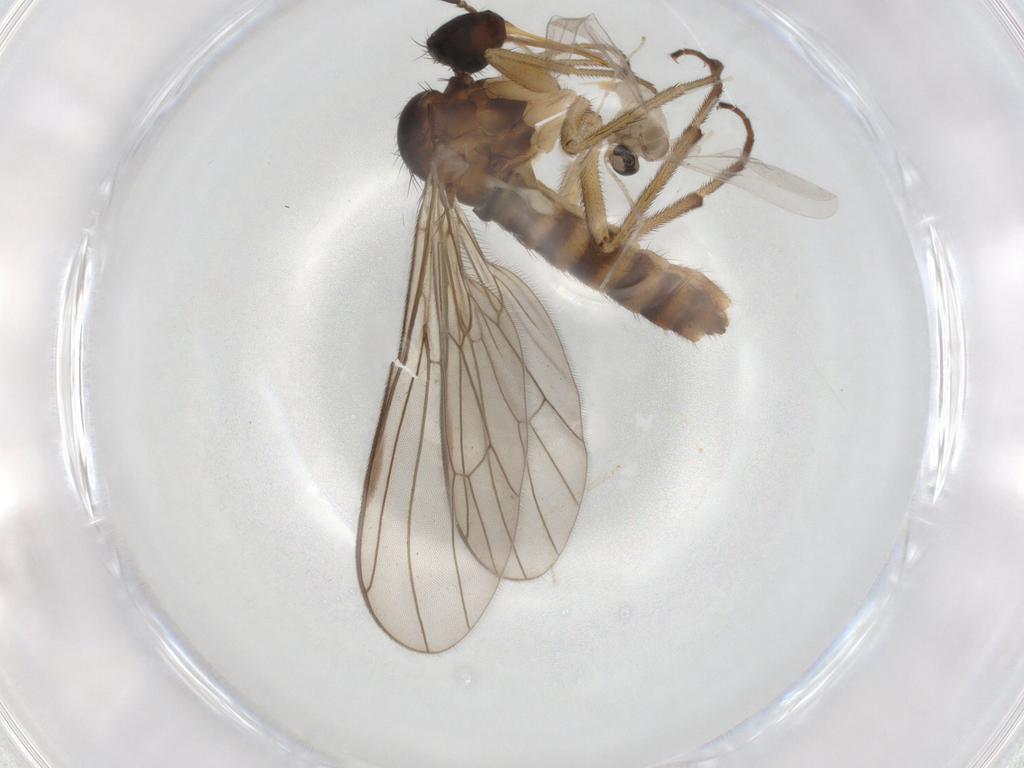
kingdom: Animalia
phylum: Arthropoda
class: Insecta
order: Diptera
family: Empididae
